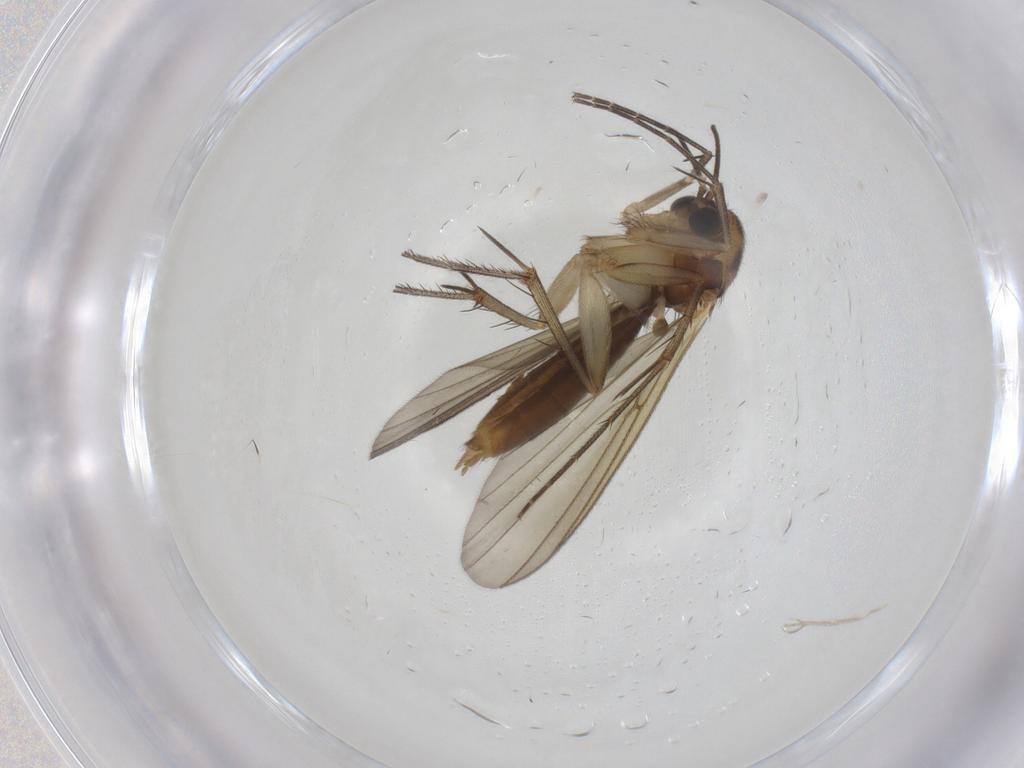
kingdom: Animalia
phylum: Arthropoda
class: Insecta
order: Diptera
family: Mycetophilidae
